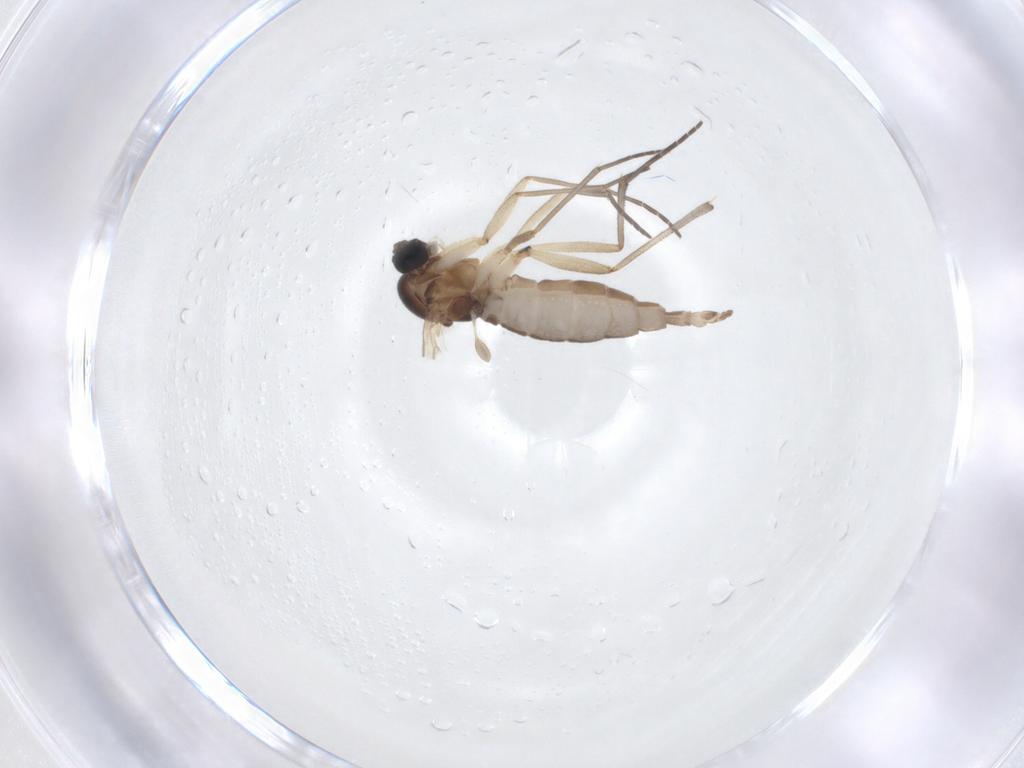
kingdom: Animalia
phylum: Arthropoda
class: Insecta
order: Diptera
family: Sciaridae
